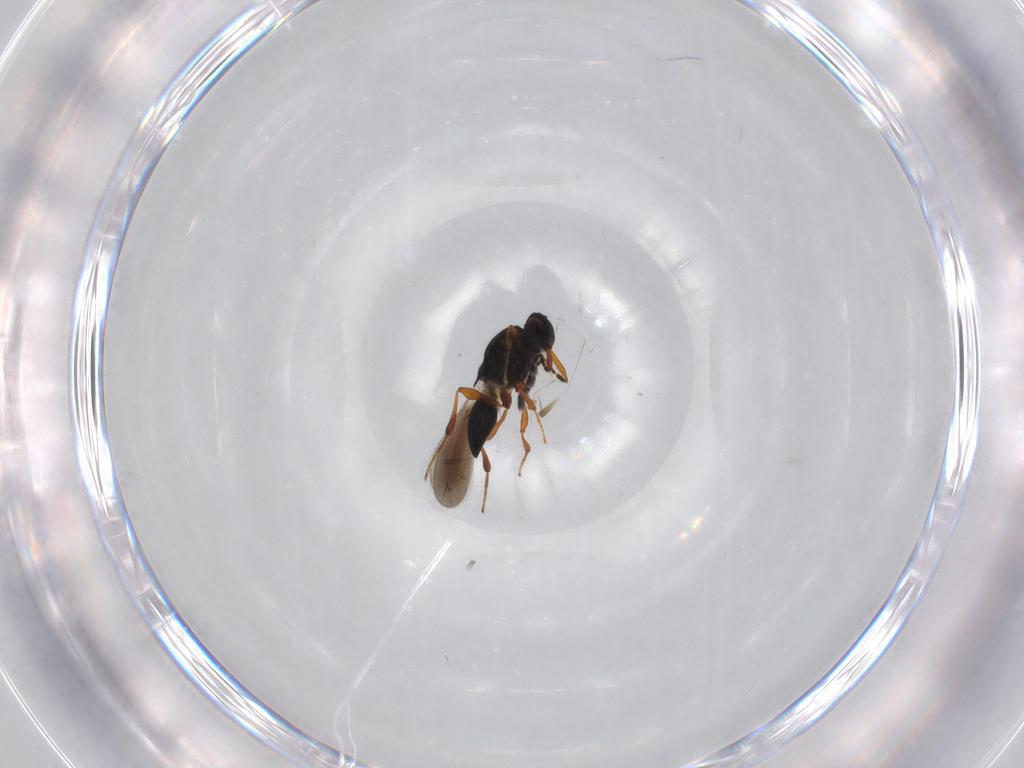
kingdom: Animalia
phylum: Arthropoda
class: Insecta
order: Hymenoptera
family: Platygastridae
